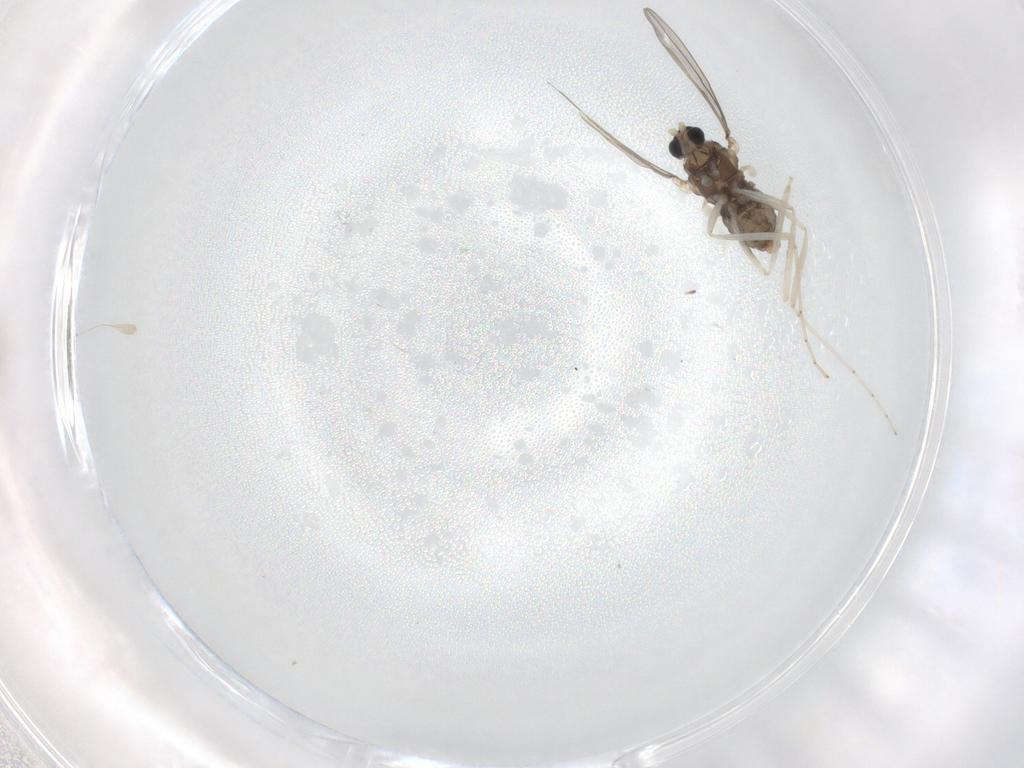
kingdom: Animalia
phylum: Arthropoda
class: Insecta
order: Diptera
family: Cecidomyiidae
